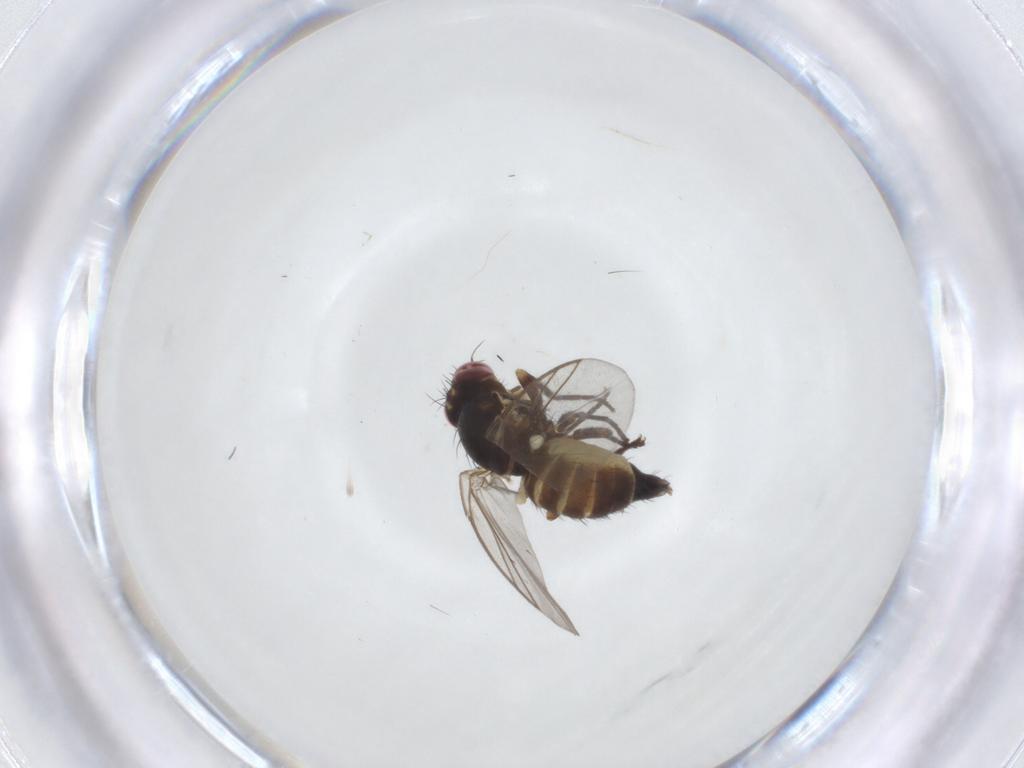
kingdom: Animalia
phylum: Arthropoda
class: Insecta
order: Diptera
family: Agromyzidae
